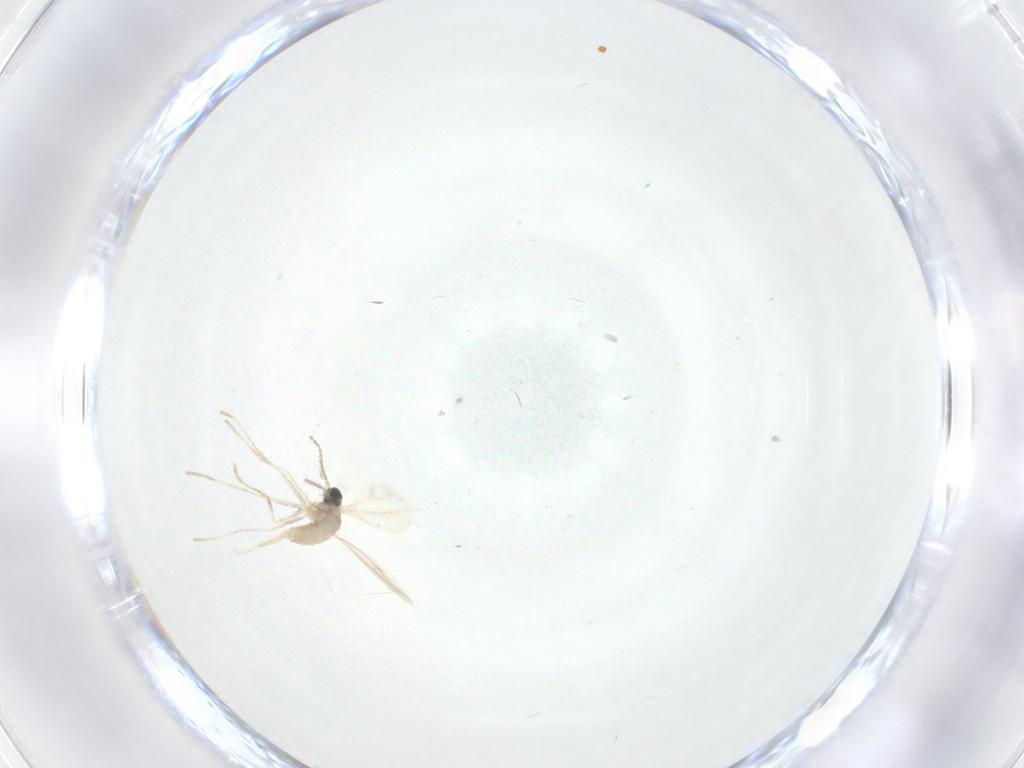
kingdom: Animalia
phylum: Arthropoda
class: Insecta
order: Diptera
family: Cecidomyiidae
